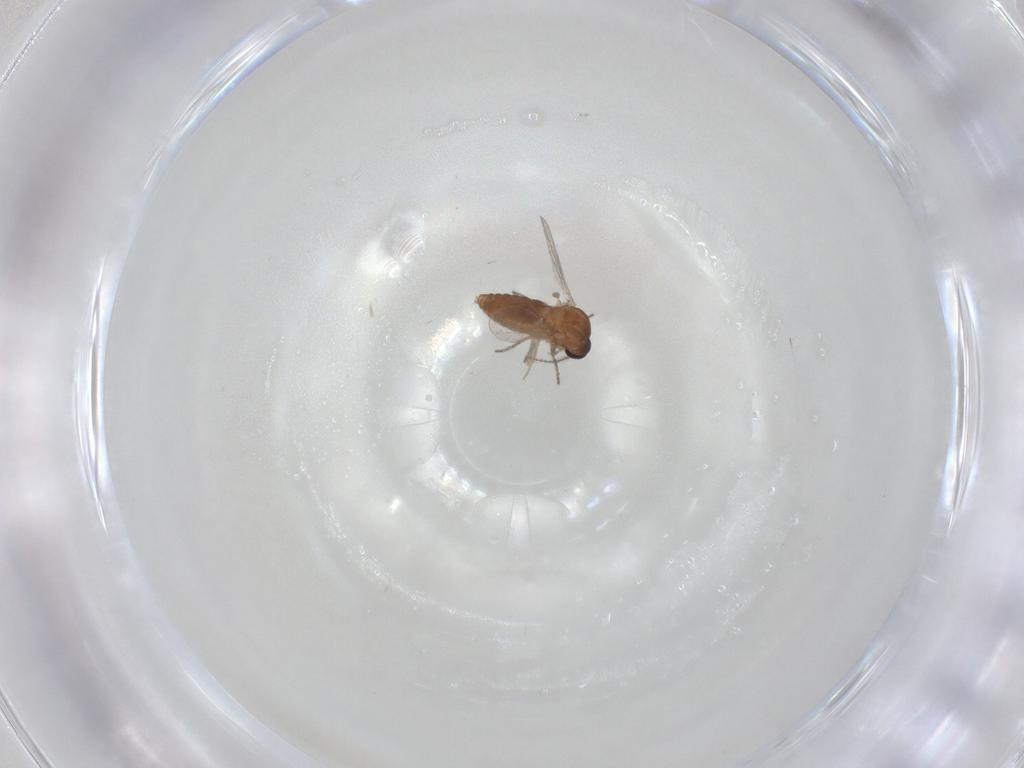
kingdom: Animalia
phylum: Arthropoda
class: Insecta
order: Diptera
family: Ceratopogonidae
